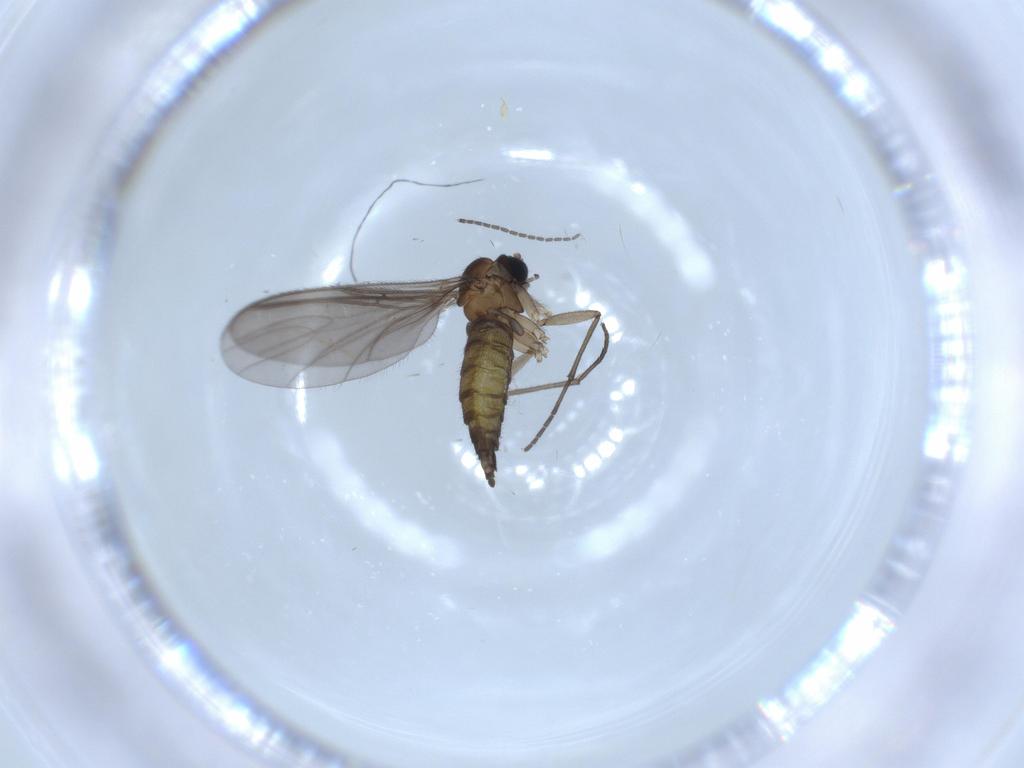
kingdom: Animalia
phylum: Arthropoda
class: Insecta
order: Diptera
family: Sciaridae
